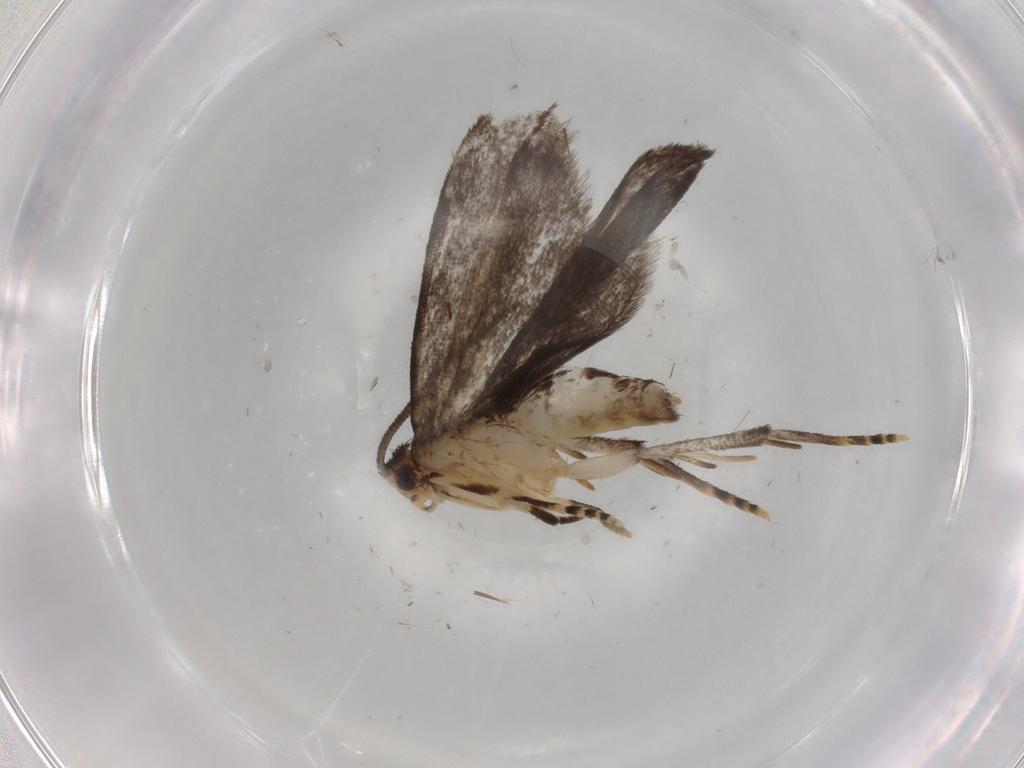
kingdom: Animalia
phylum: Arthropoda
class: Insecta
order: Lepidoptera
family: Dryadaulidae
